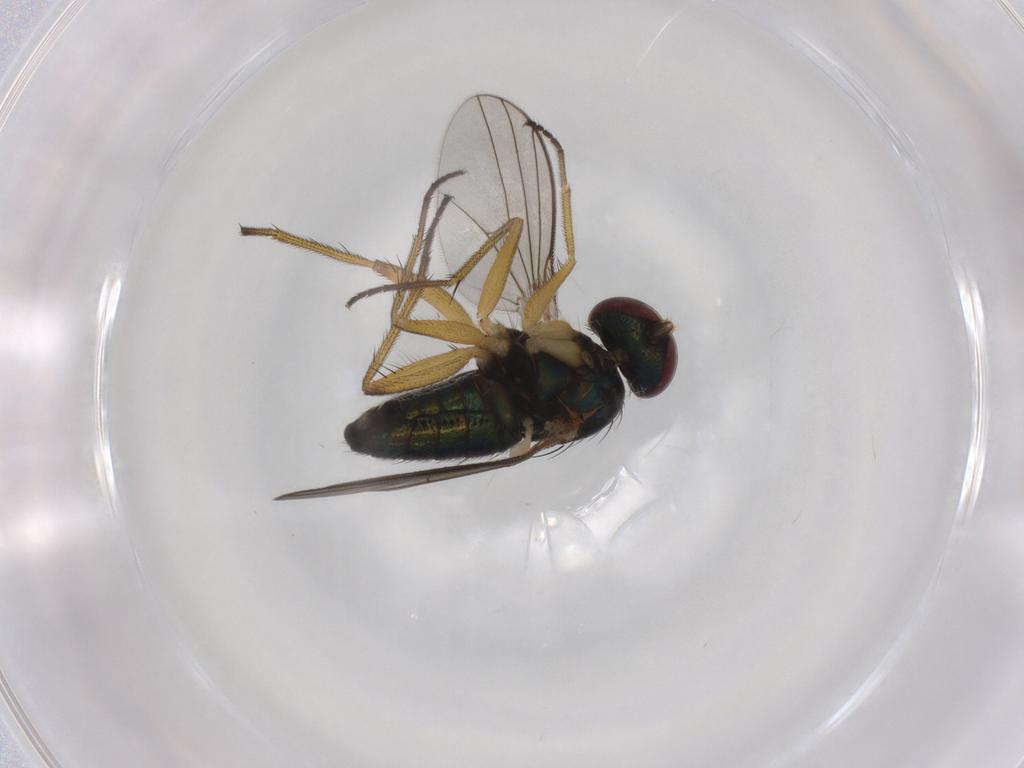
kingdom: Animalia
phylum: Arthropoda
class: Insecta
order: Diptera
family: Dolichopodidae
